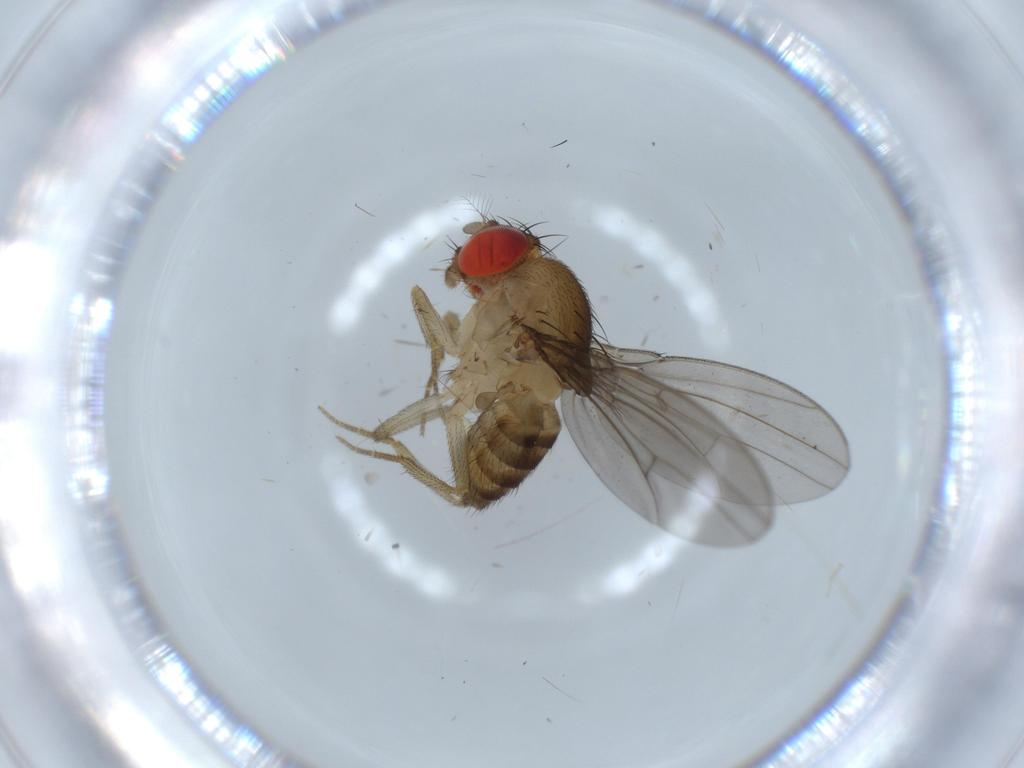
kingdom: Animalia
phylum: Arthropoda
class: Insecta
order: Diptera
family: Drosophilidae
